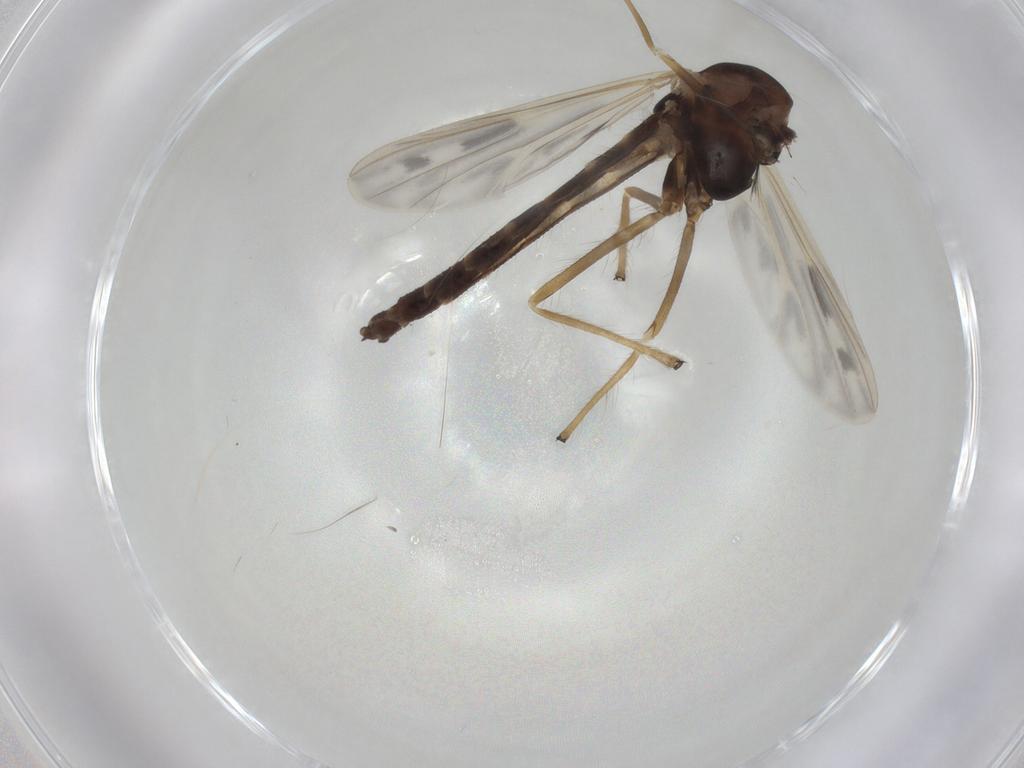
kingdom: Animalia
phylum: Arthropoda
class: Insecta
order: Diptera
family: Chironomidae
